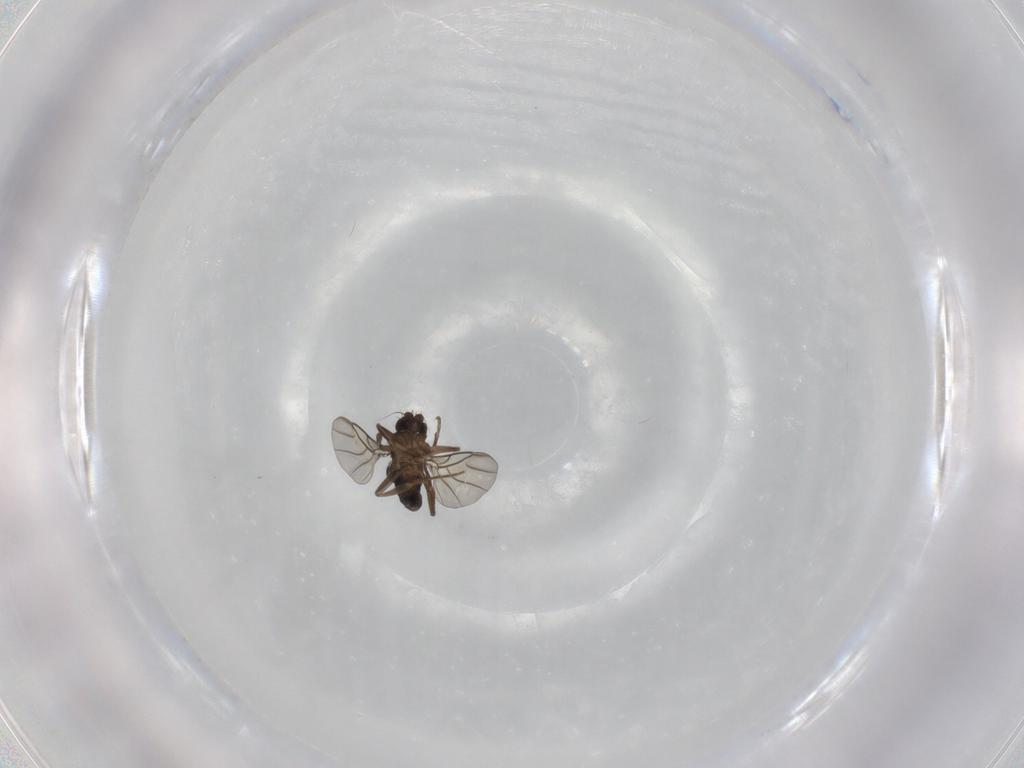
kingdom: Animalia
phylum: Arthropoda
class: Insecta
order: Diptera
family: Phoridae
